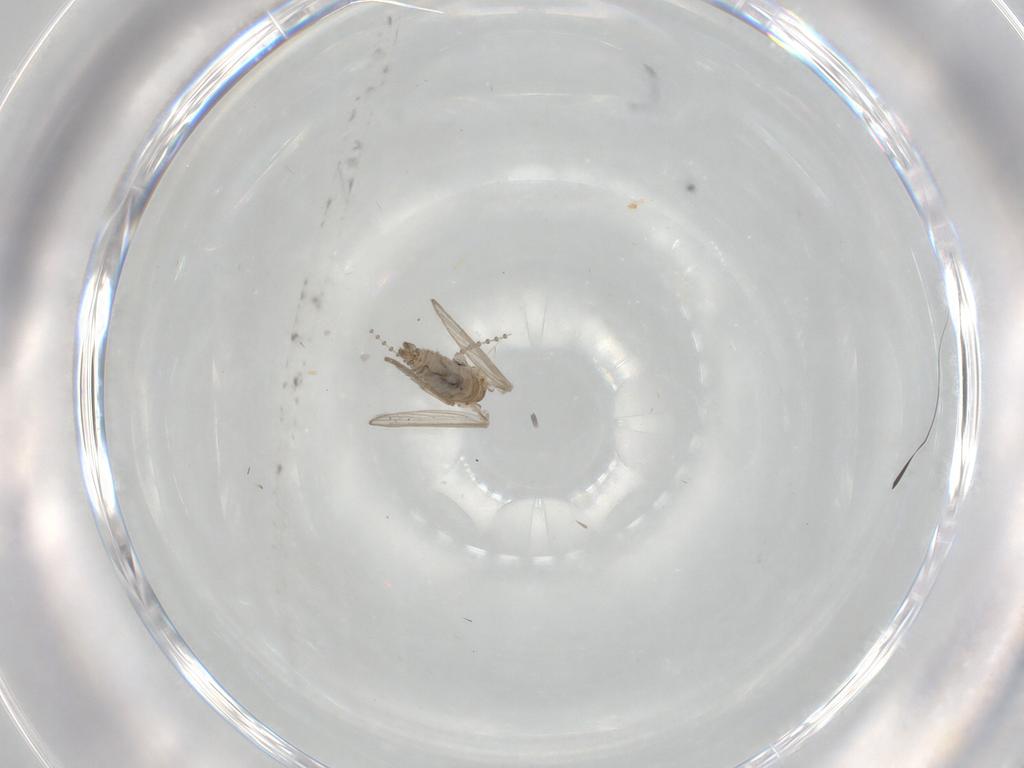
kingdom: Animalia
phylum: Arthropoda
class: Insecta
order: Diptera
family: Psychodidae
